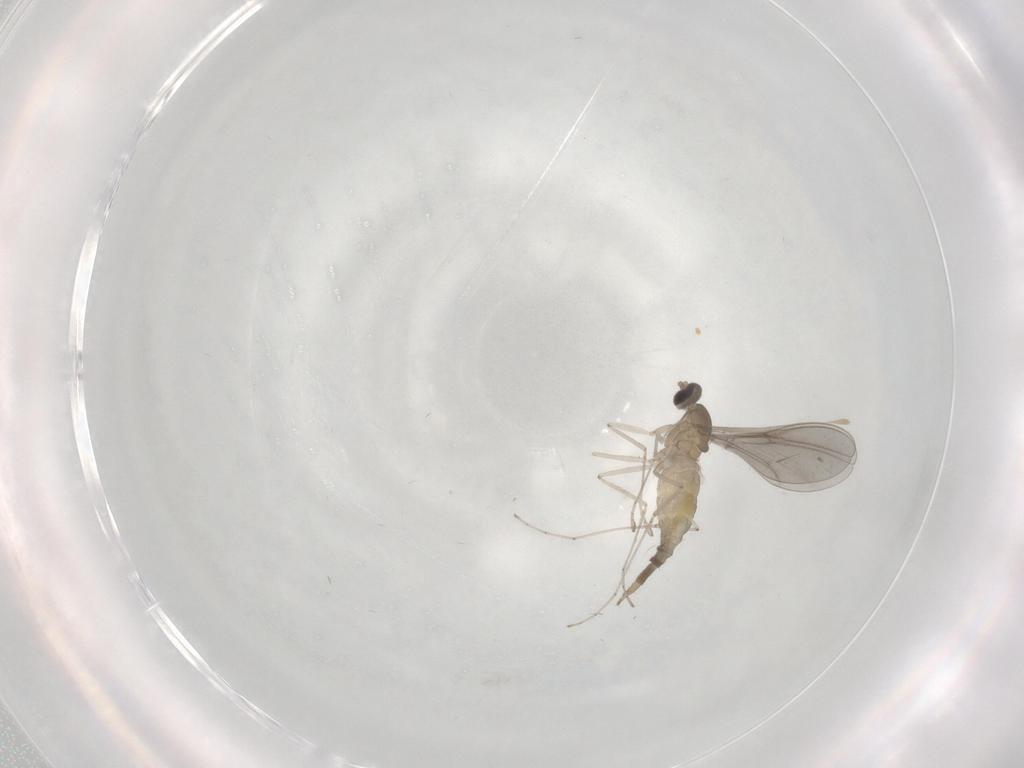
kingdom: Animalia
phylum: Arthropoda
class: Insecta
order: Diptera
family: Cecidomyiidae
